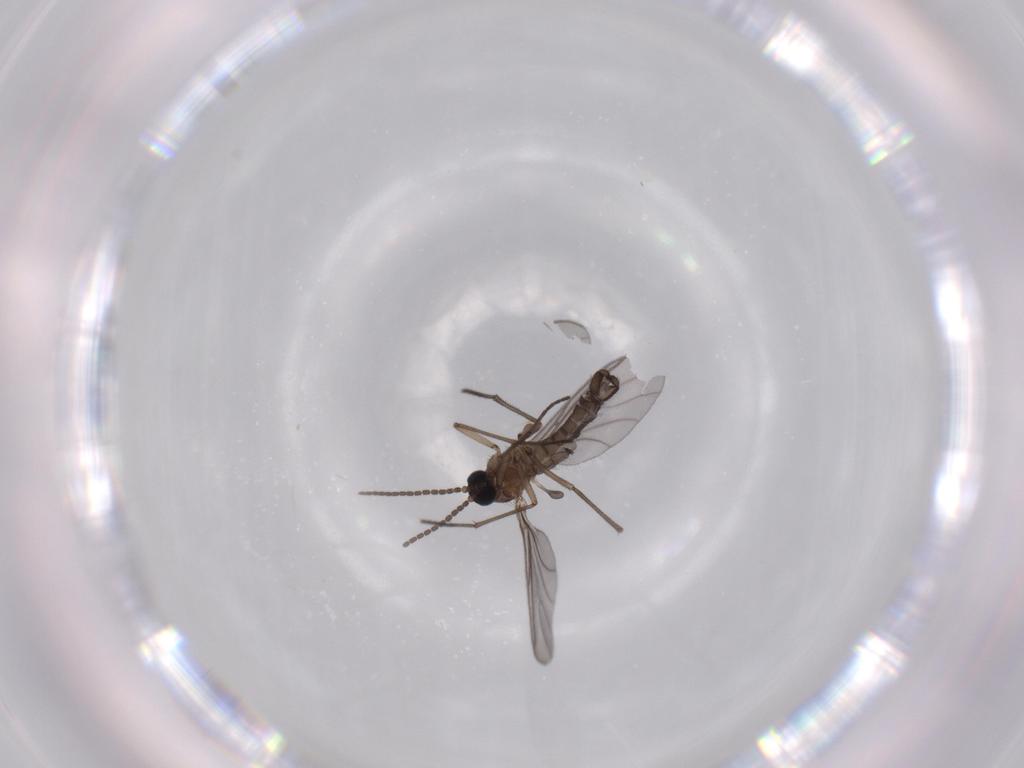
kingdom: Animalia
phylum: Arthropoda
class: Insecta
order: Diptera
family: Sciaridae
